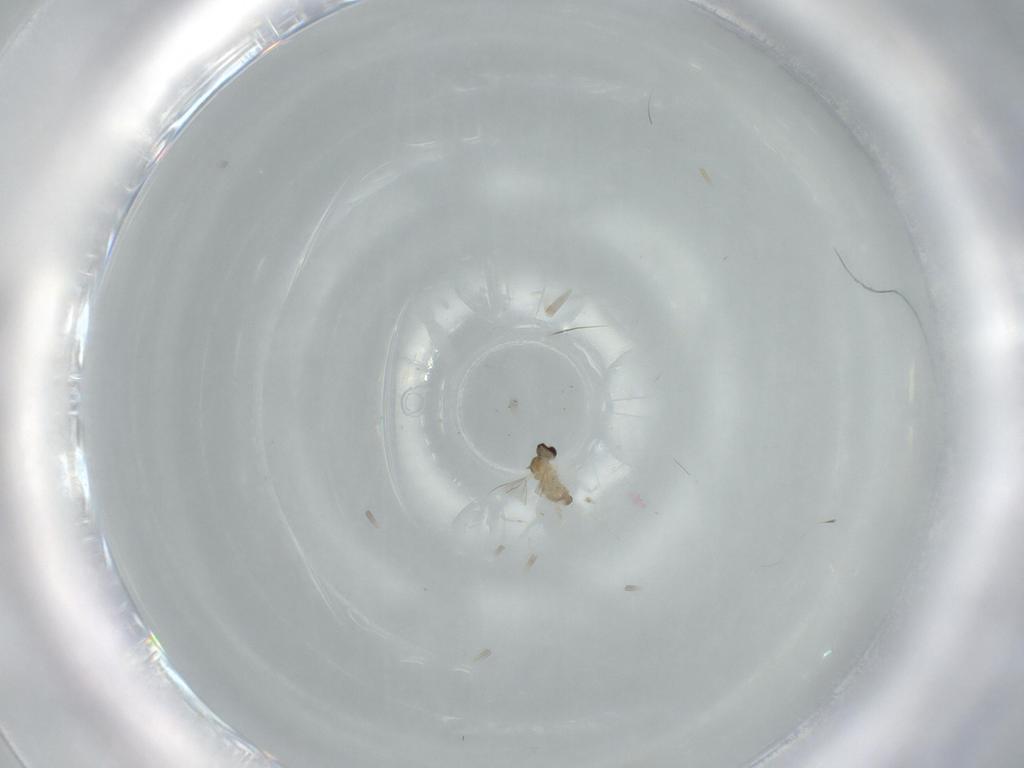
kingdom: Animalia
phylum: Arthropoda
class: Insecta
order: Diptera
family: Cecidomyiidae
